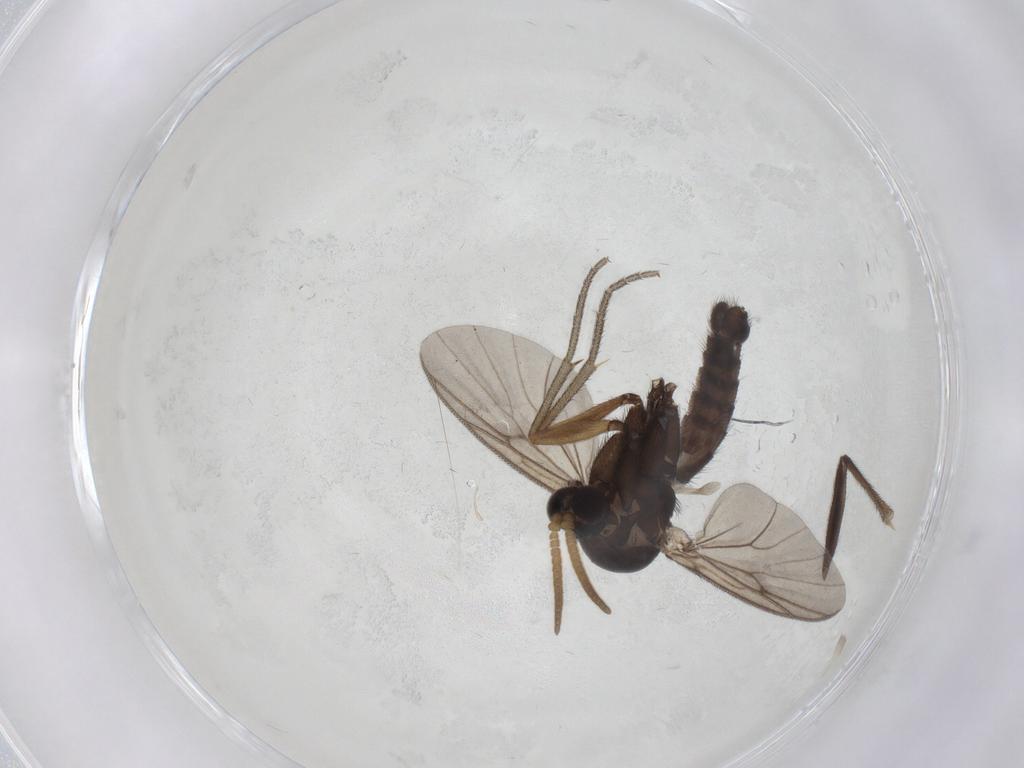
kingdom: Animalia
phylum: Arthropoda
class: Insecta
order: Diptera
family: Mycetophilidae
